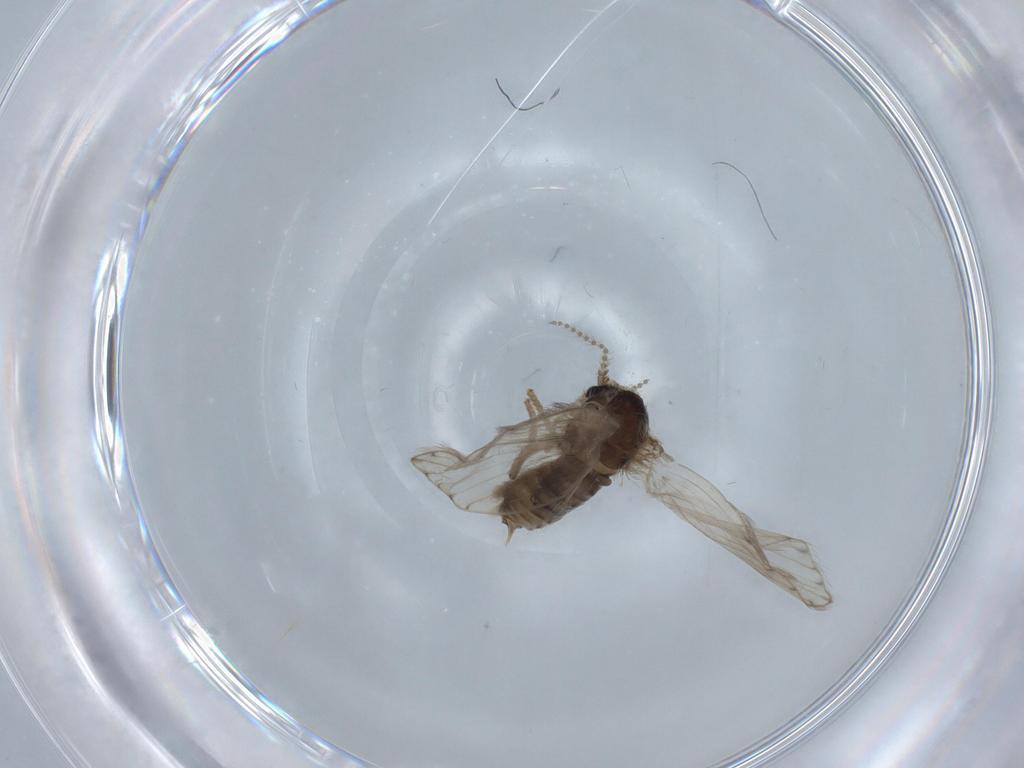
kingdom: Animalia
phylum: Arthropoda
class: Insecta
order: Diptera
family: Psychodidae
